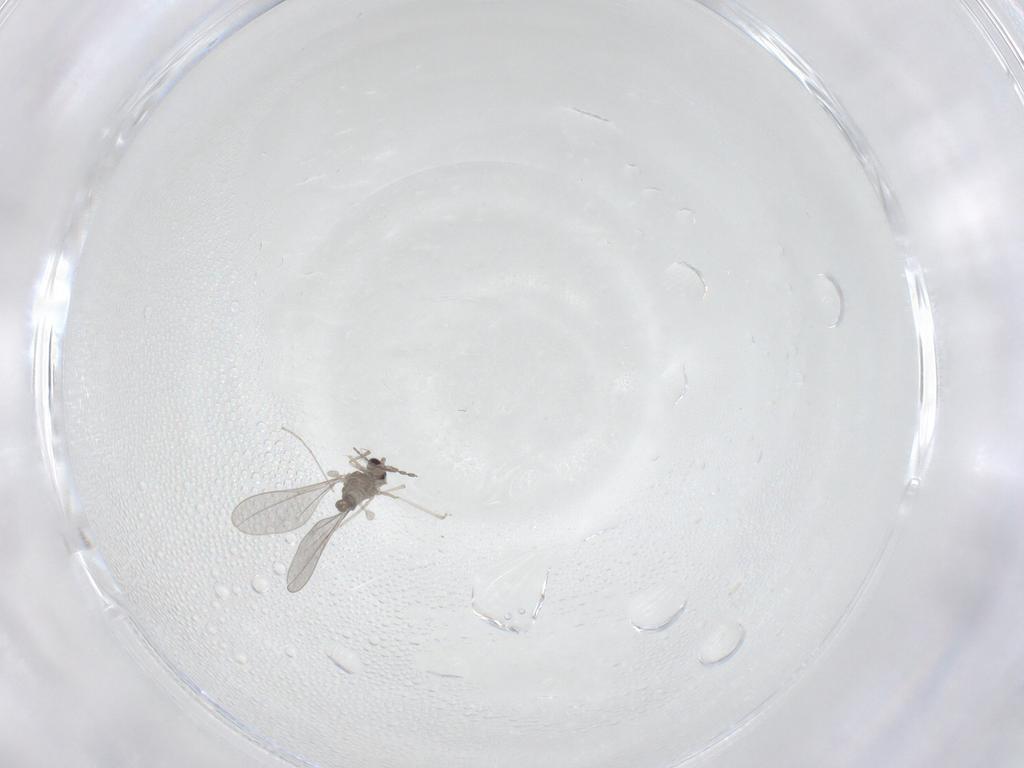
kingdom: Animalia
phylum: Arthropoda
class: Insecta
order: Diptera
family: Cecidomyiidae
